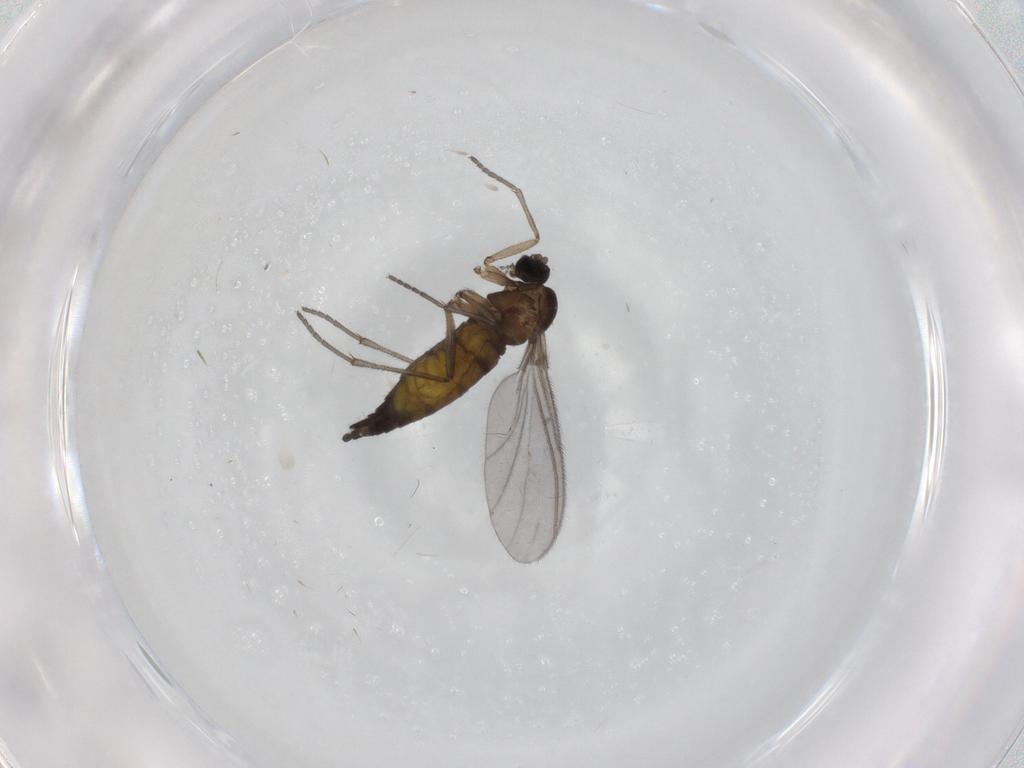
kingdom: Animalia
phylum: Arthropoda
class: Insecta
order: Diptera
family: Sciaridae
